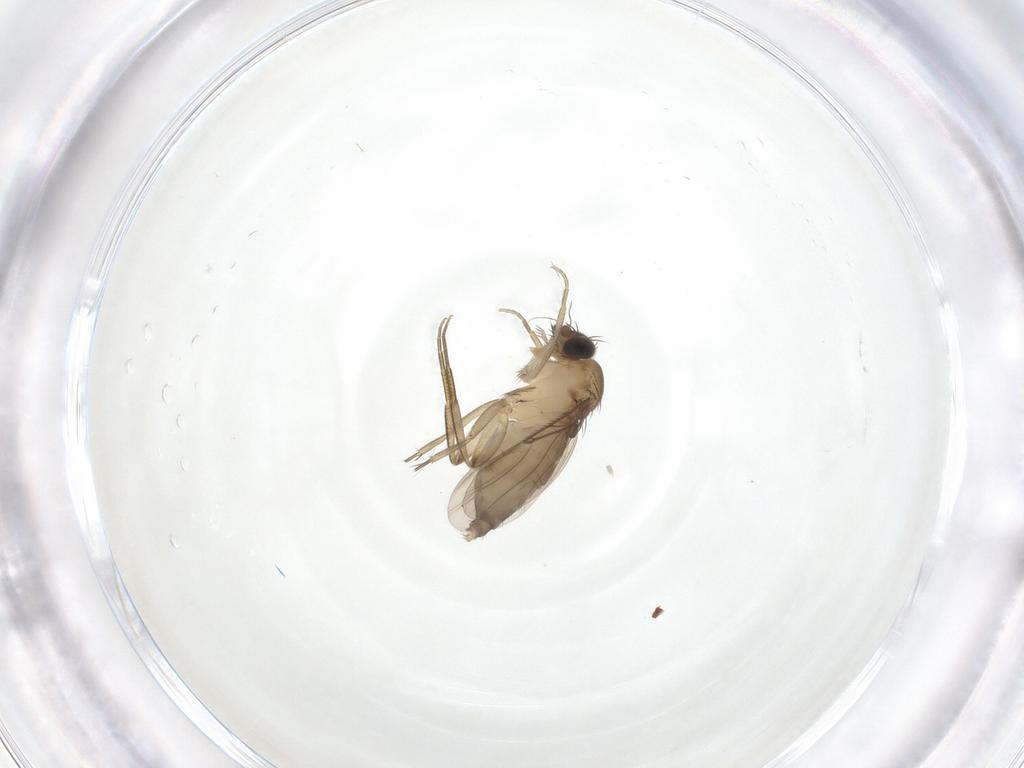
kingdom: Animalia
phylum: Arthropoda
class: Insecta
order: Diptera
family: Phoridae
